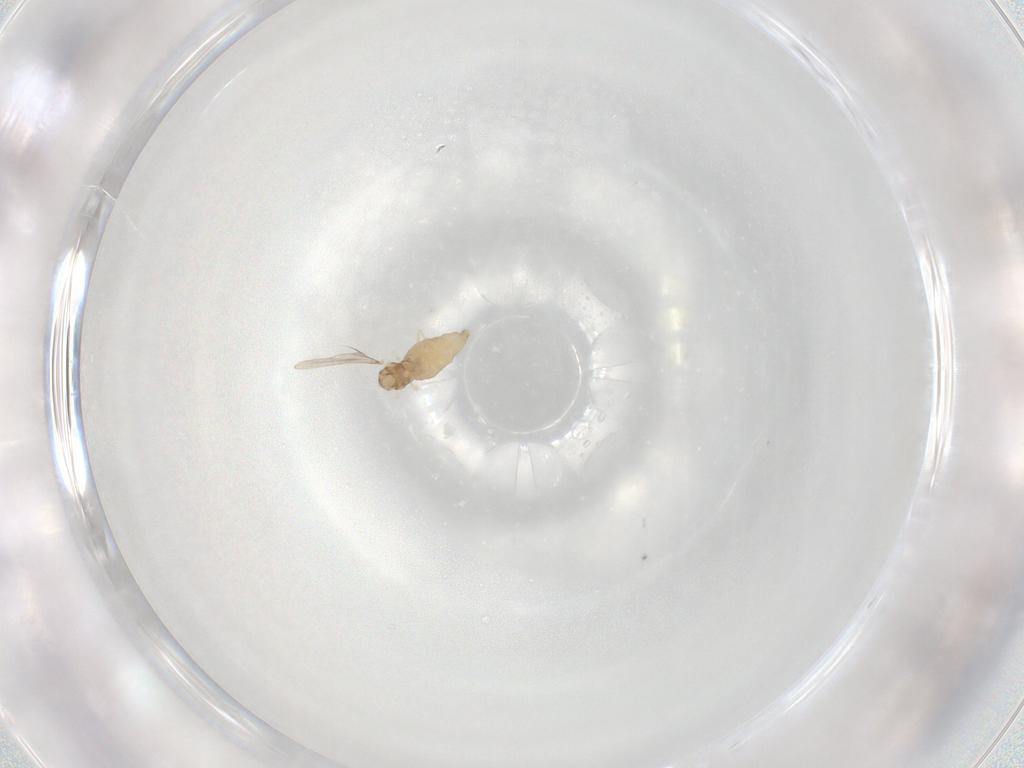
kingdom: Animalia
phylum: Arthropoda
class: Insecta
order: Diptera
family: Cecidomyiidae
